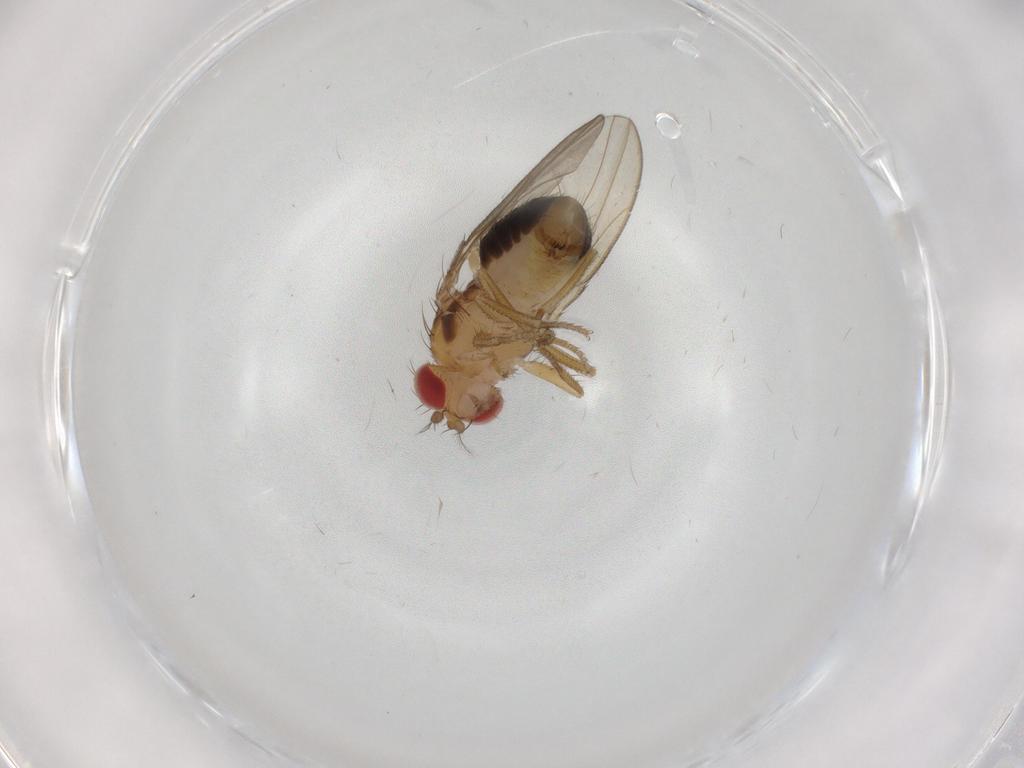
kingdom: Animalia
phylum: Arthropoda
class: Insecta
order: Diptera
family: Drosophilidae
